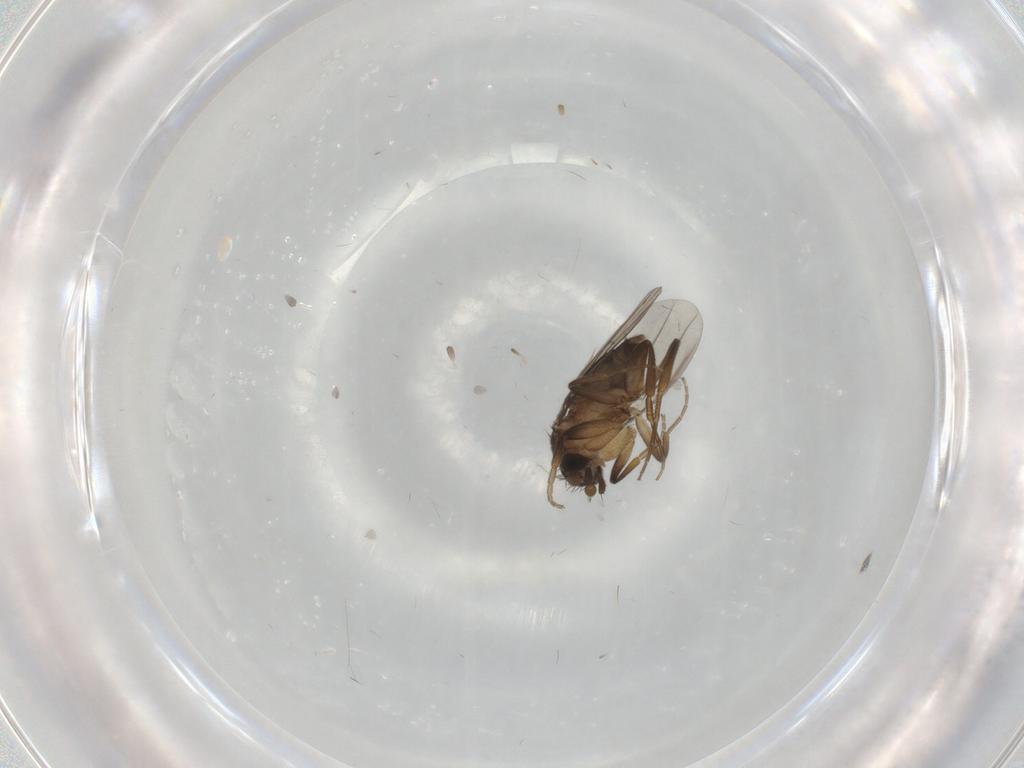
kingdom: Animalia
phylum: Arthropoda
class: Insecta
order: Diptera
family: Phoridae
